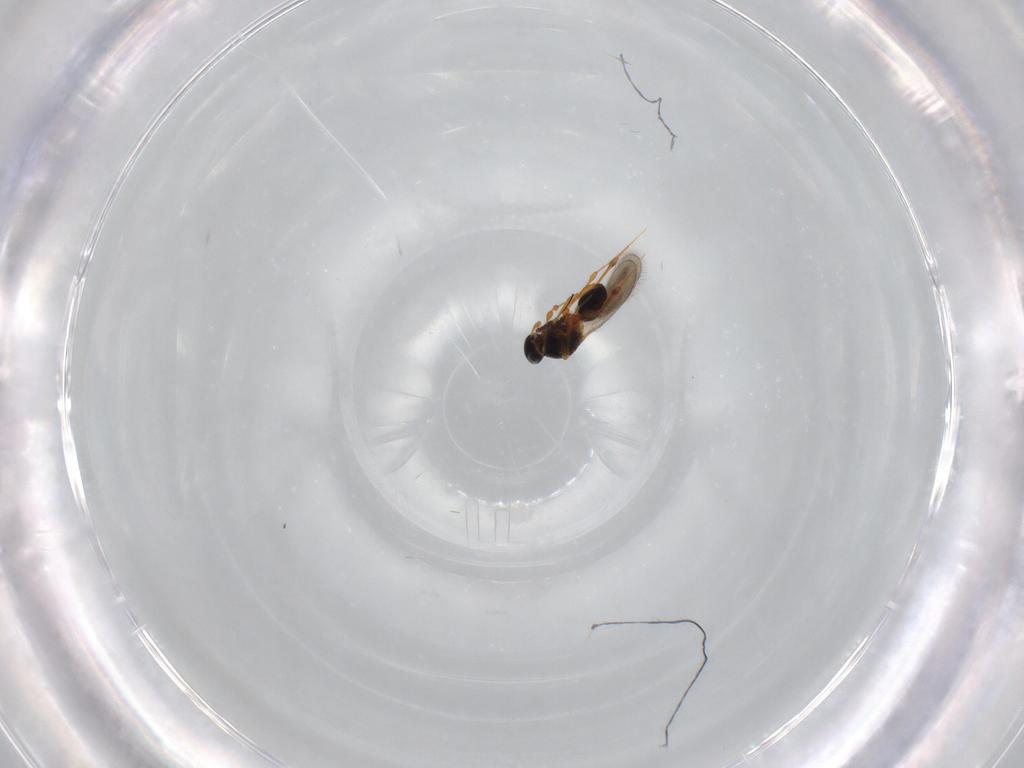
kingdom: Animalia
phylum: Arthropoda
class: Insecta
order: Hymenoptera
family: Platygastridae
